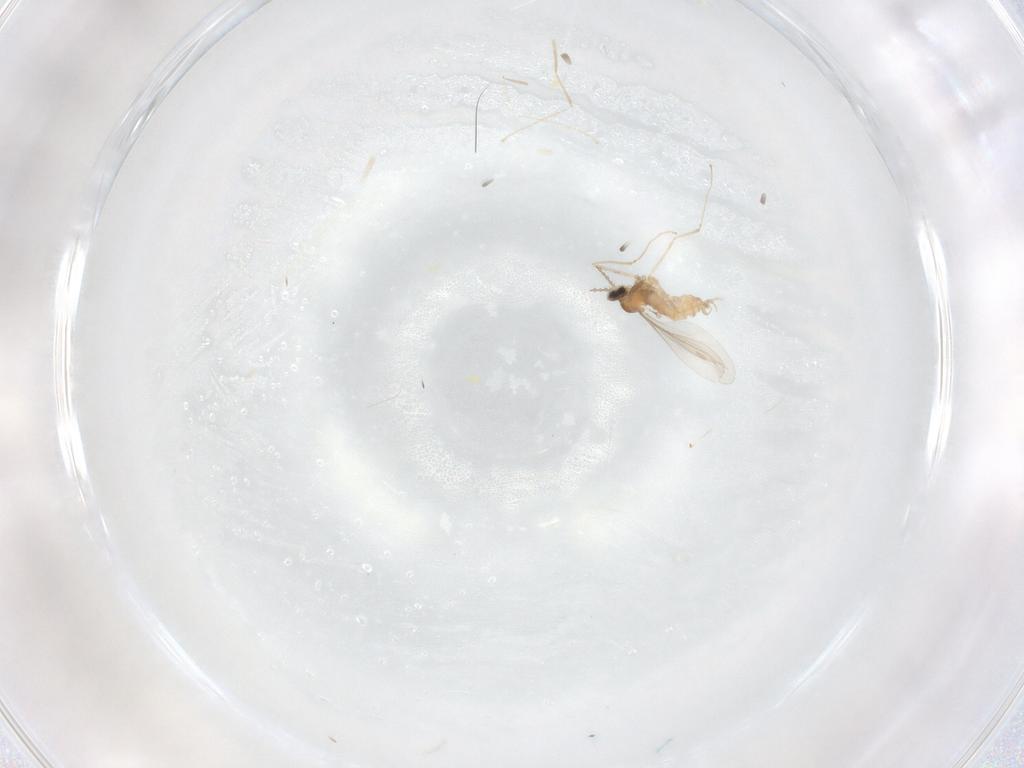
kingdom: Animalia
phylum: Arthropoda
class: Insecta
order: Diptera
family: Cecidomyiidae
